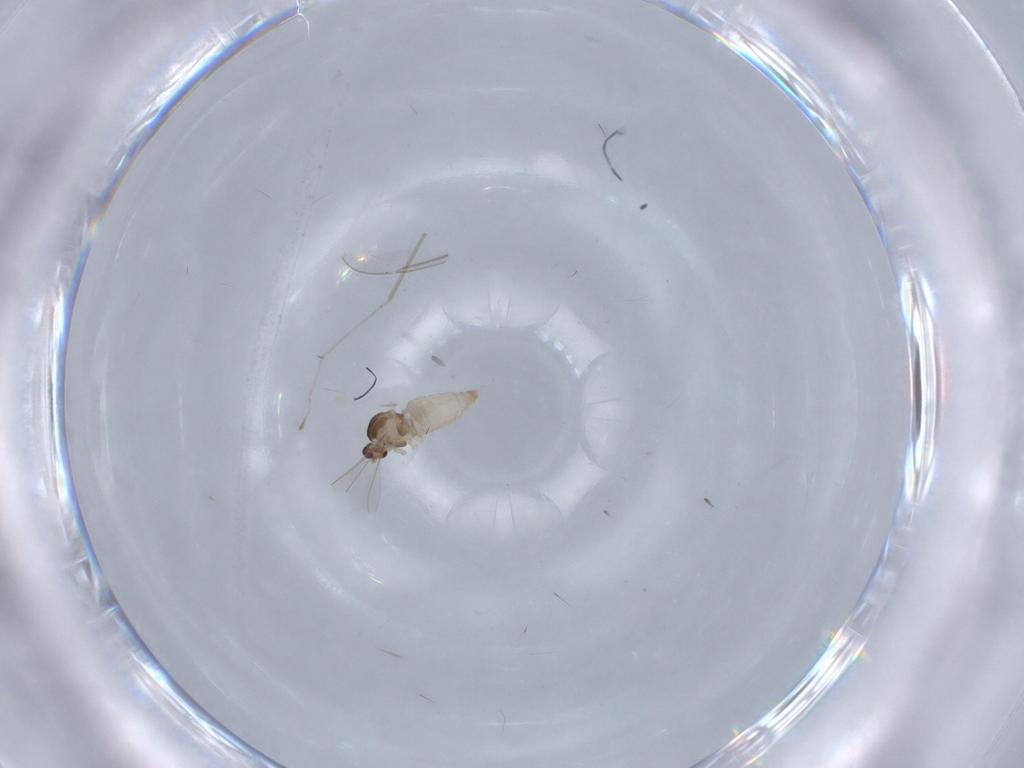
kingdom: Animalia
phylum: Arthropoda
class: Insecta
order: Diptera
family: Cecidomyiidae
